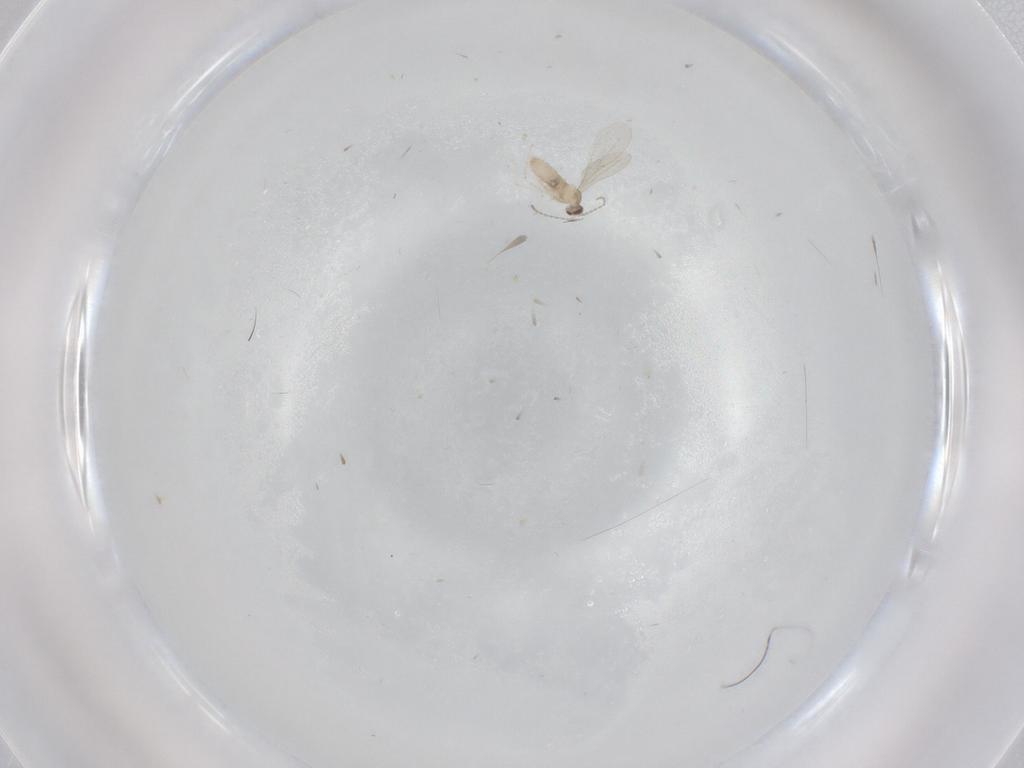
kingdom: Animalia
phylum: Arthropoda
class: Insecta
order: Diptera
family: Cecidomyiidae
